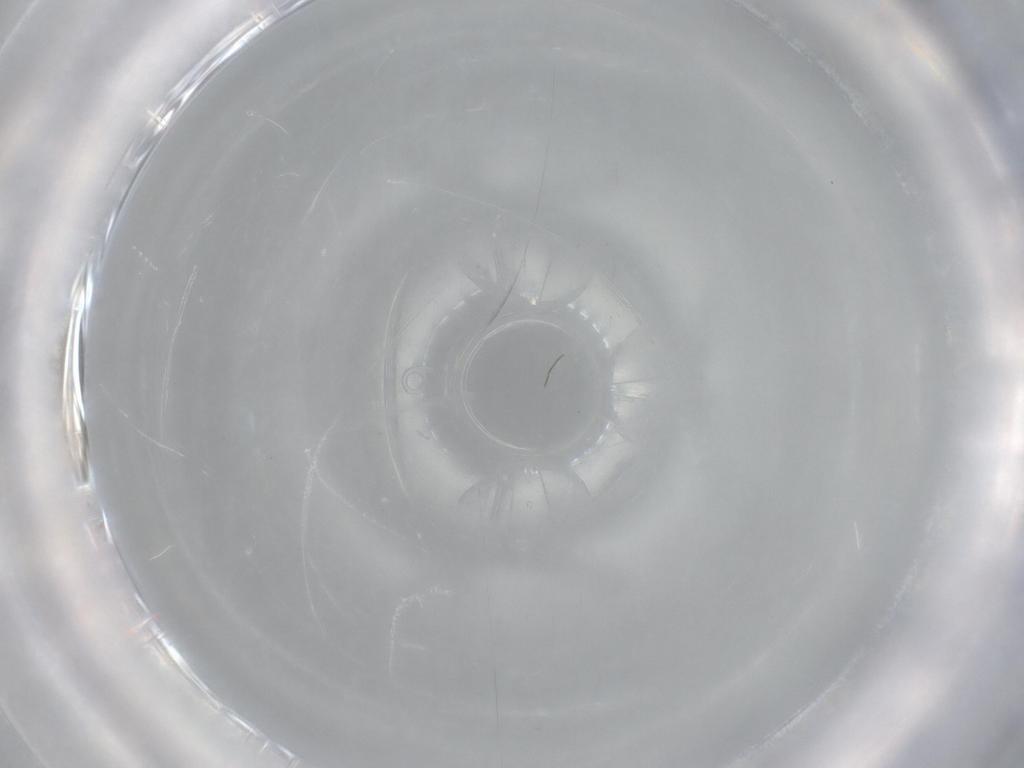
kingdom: Animalia
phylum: Arthropoda
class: Insecta
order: Diptera
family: Mycetophilidae
